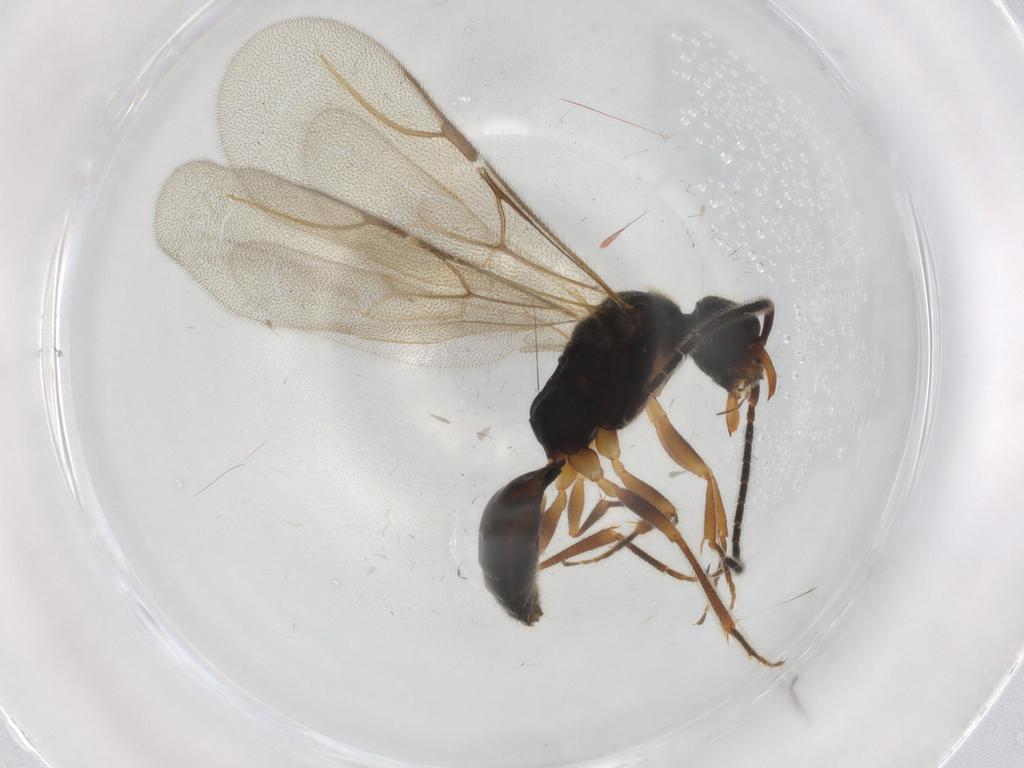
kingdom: Animalia
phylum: Arthropoda
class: Insecta
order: Hymenoptera
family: Bethylidae
